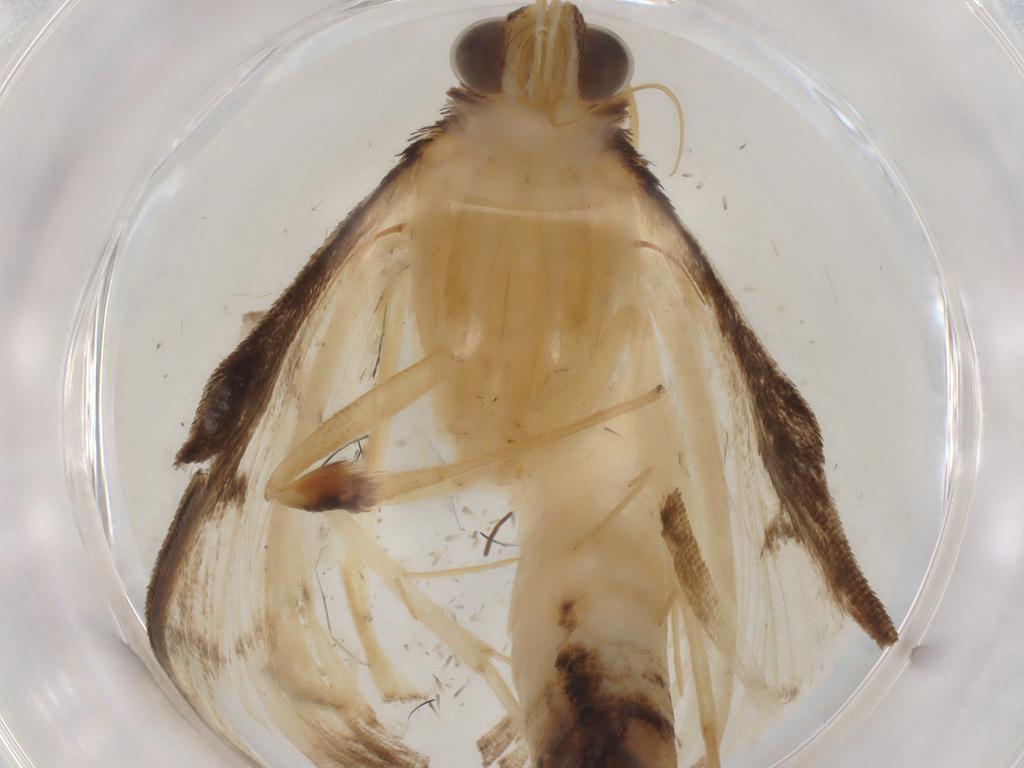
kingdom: Animalia
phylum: Arthropoda
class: Insecta
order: Lepidoptera
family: Crambidae
